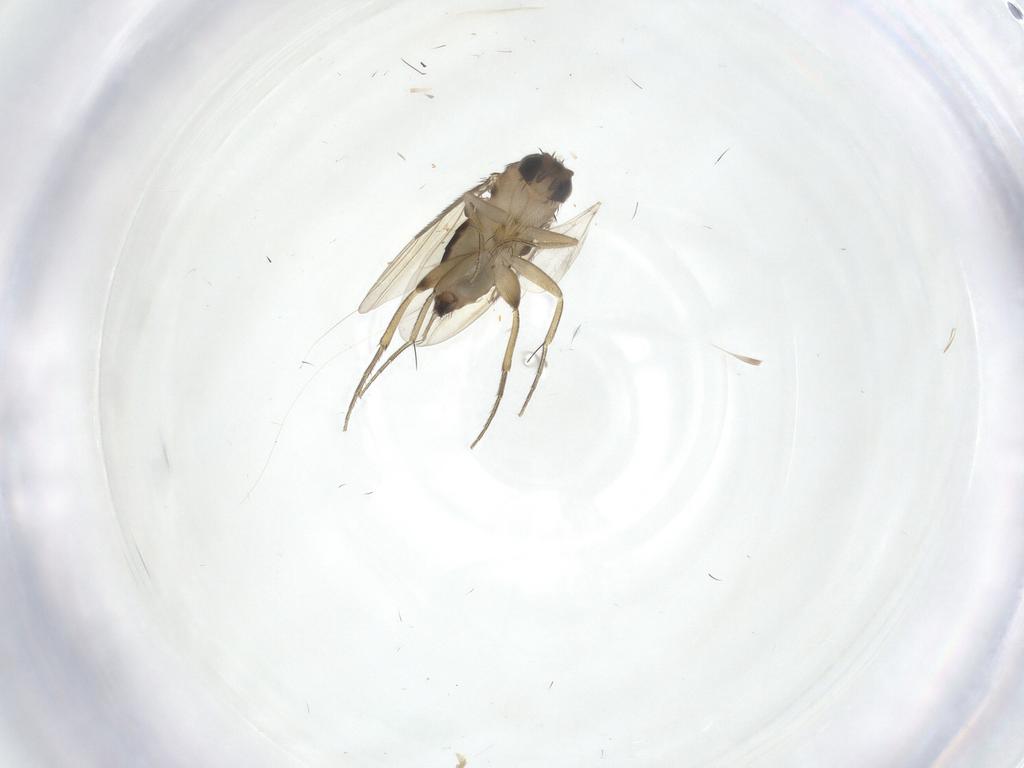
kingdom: Animalia
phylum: Arthropoda
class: Insecta
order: Diptera
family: Phoridae
